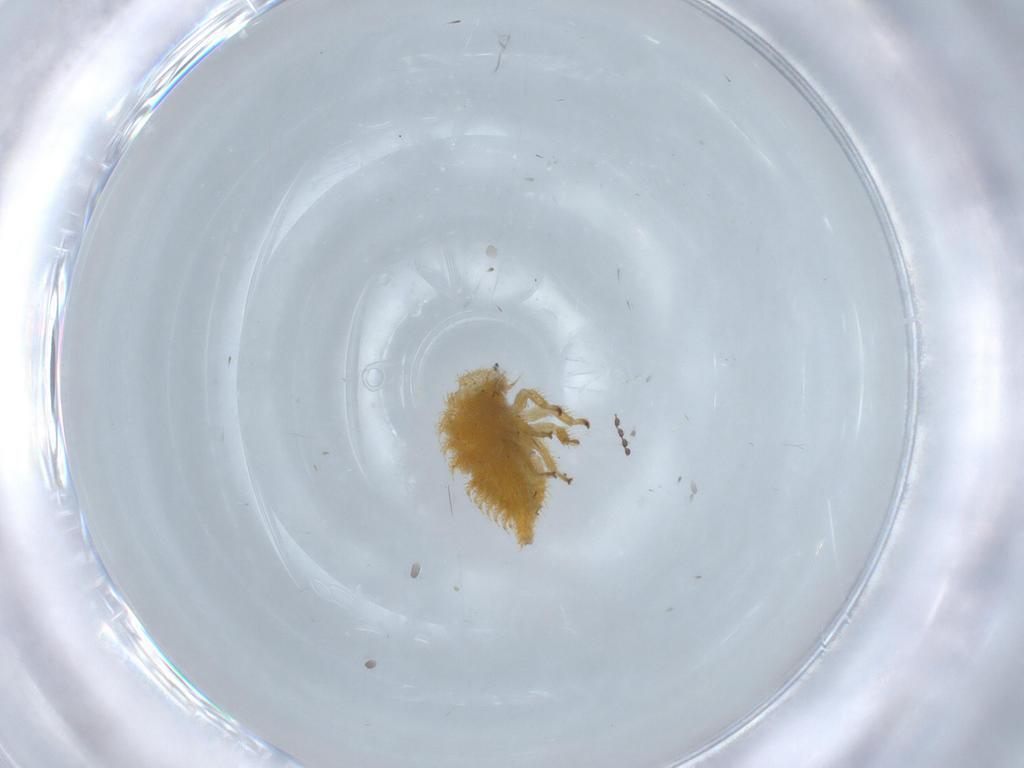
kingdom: Animalia
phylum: Arthropoda
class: Insecta
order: Hemiptera
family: Membracidae
